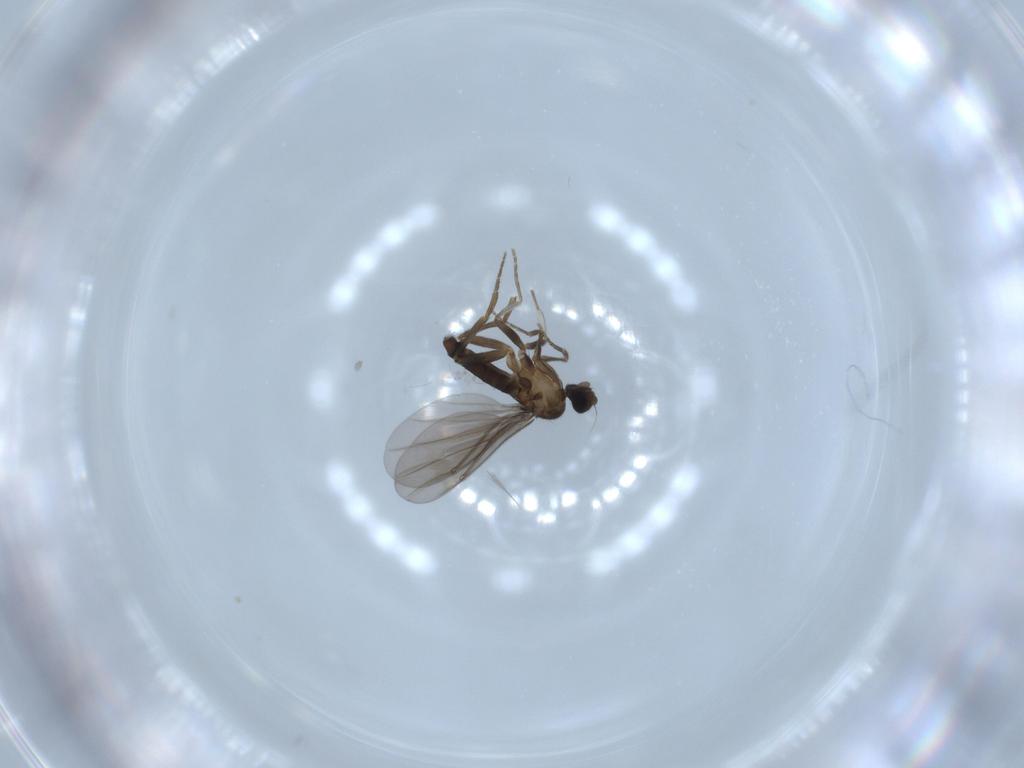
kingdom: Animalia
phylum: Arthropoda
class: Insecta
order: Diptera
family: Phoridae
